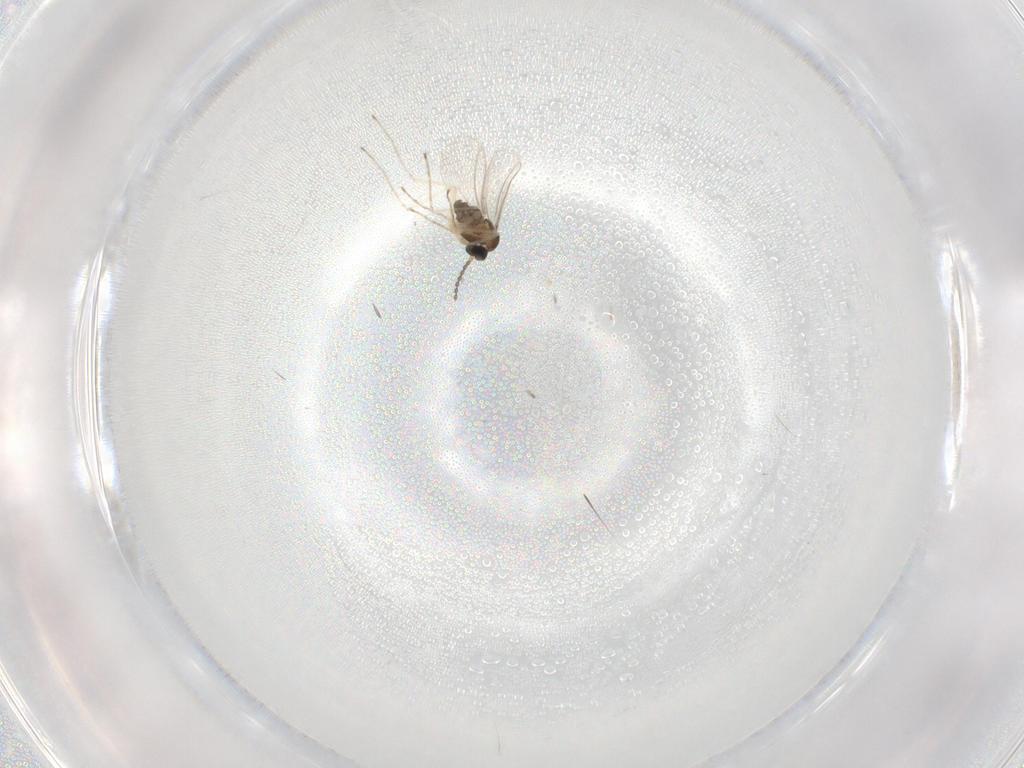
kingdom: Animalia
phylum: Arthropoda
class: Insecta
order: Diptera
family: Cecidomyiidae
